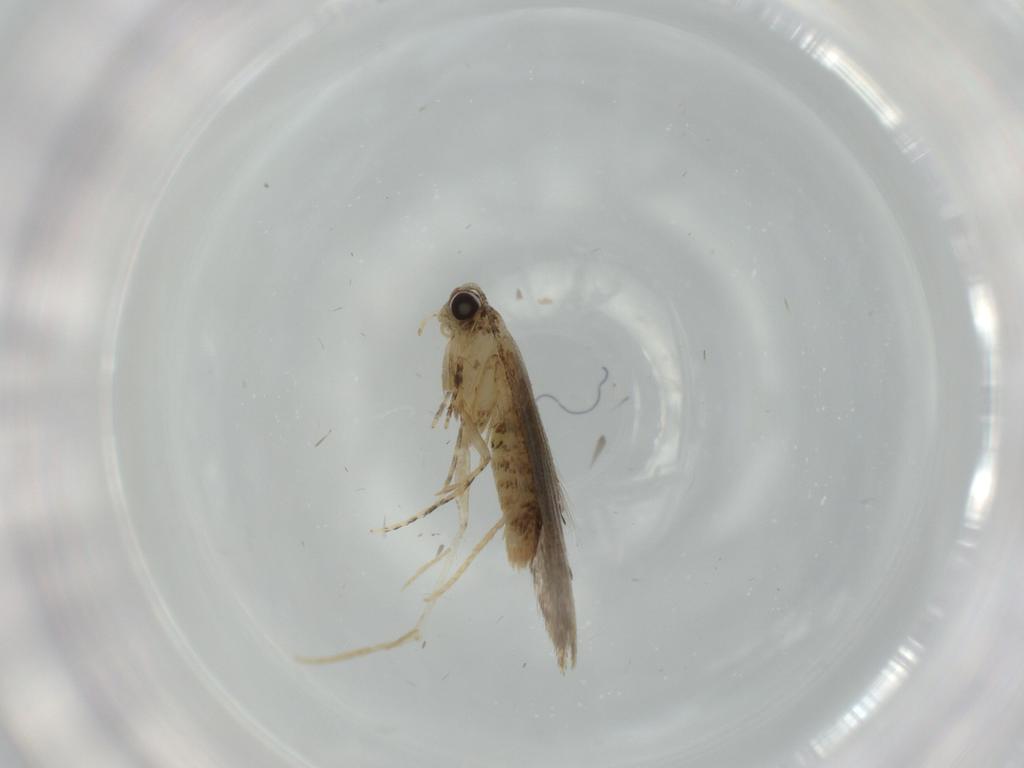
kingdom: Animalia
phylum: Arthropoda
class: Insecta
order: Lepidoptera
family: Tineidae
